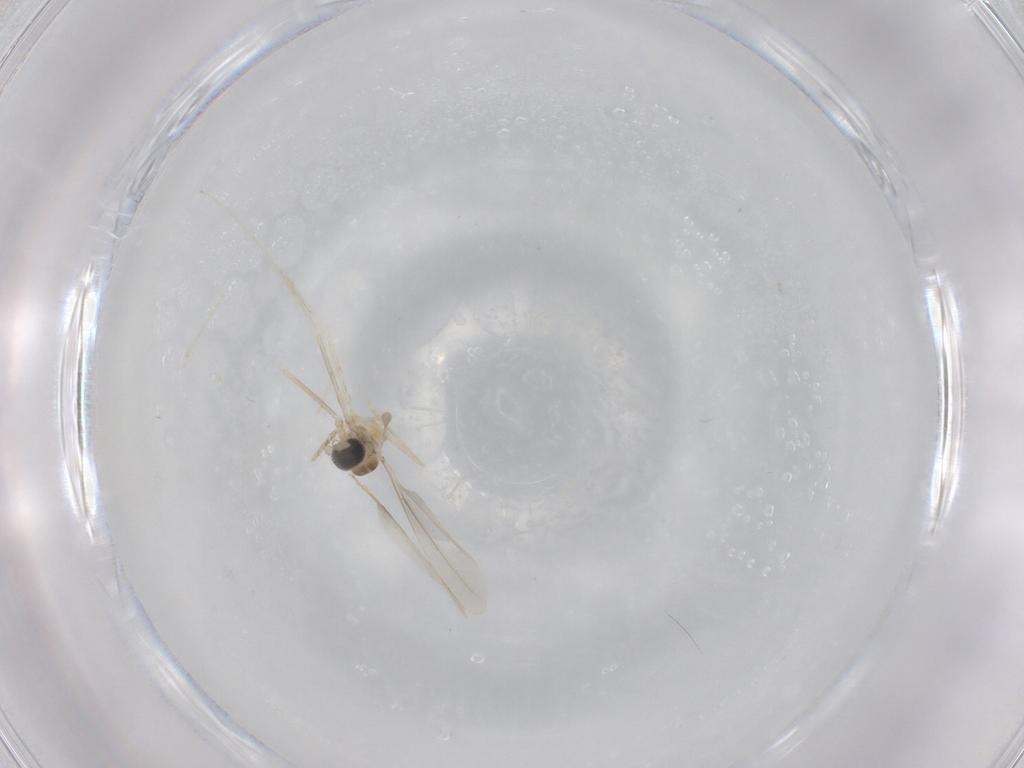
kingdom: Animalia
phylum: Arthropoda
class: Insecta
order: Diptera
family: Cecidomyiidae
